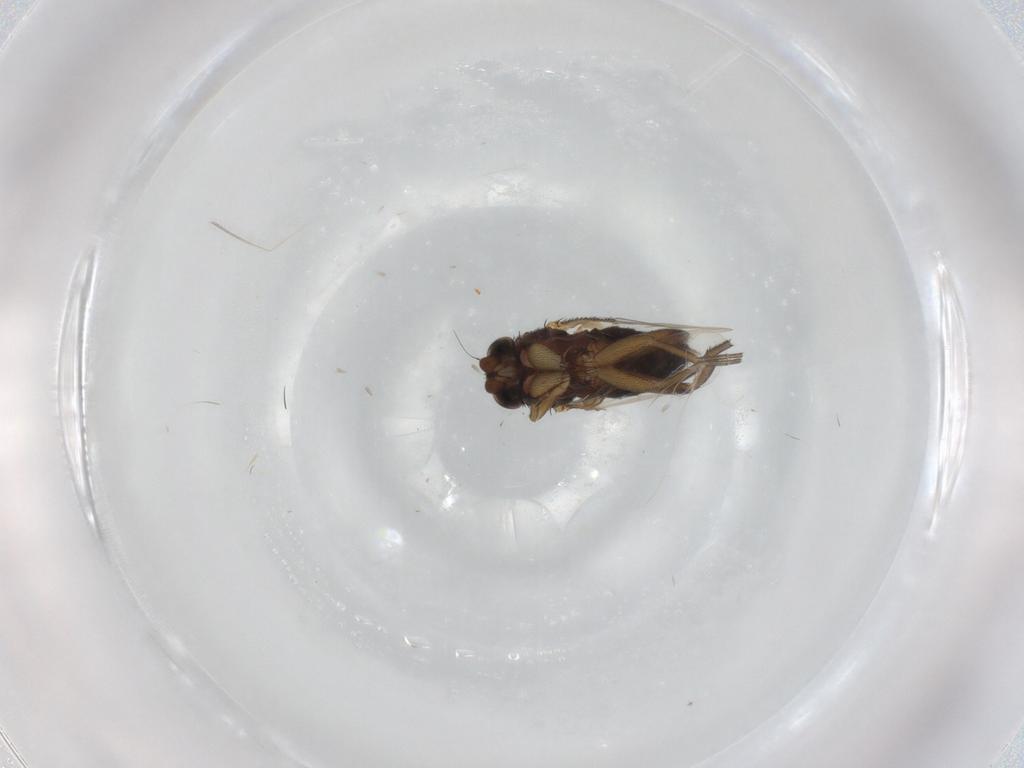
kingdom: Animalia
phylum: Arthropoda
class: Insecta
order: Diptera
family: Phoridae
